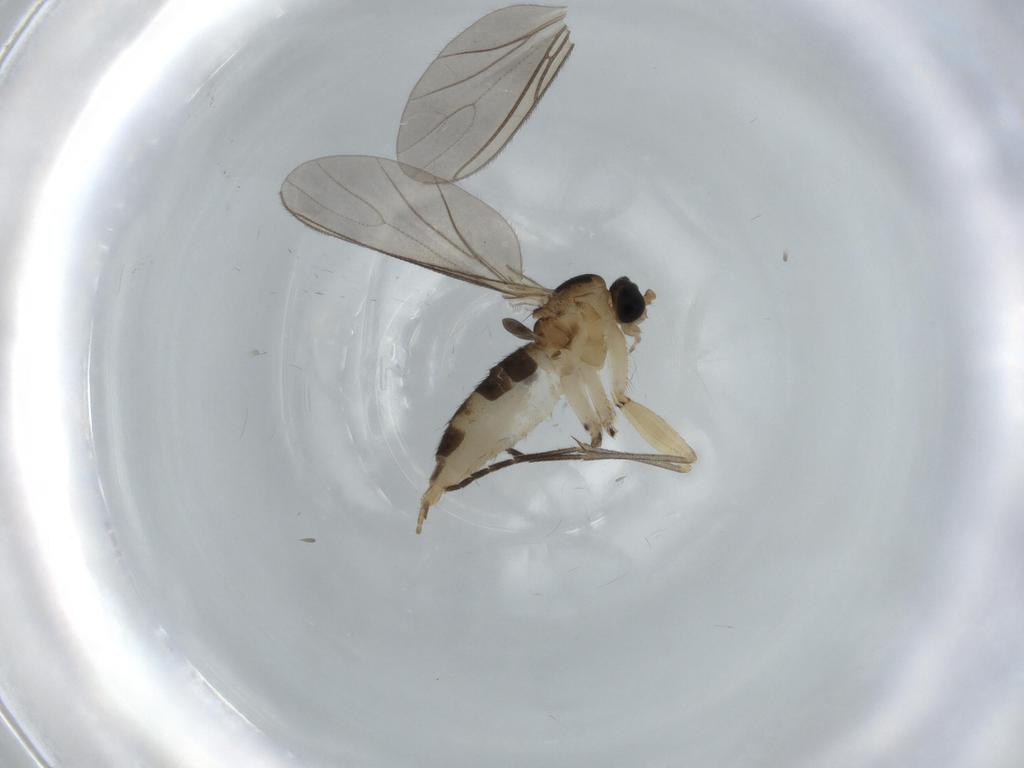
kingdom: Animalia
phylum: Arthropoda
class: Insecta
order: Diptera
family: Sciaridae
